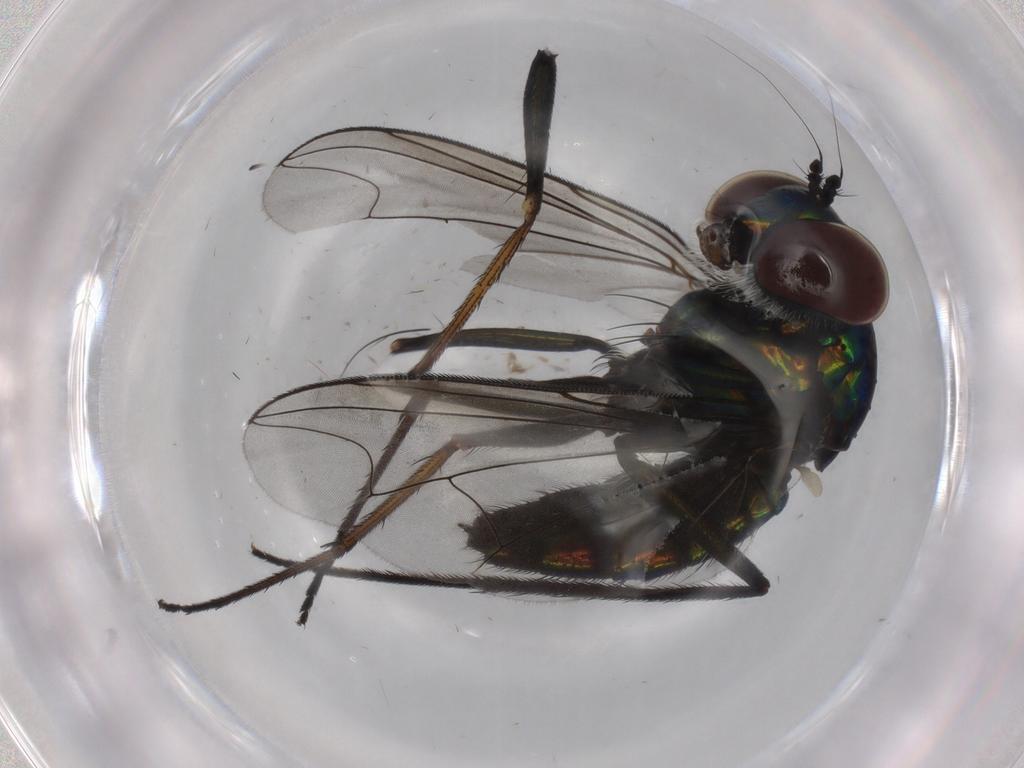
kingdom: Animalia
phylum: Arthropoda
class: Insecta
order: Diptera
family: Dolichopodidae
